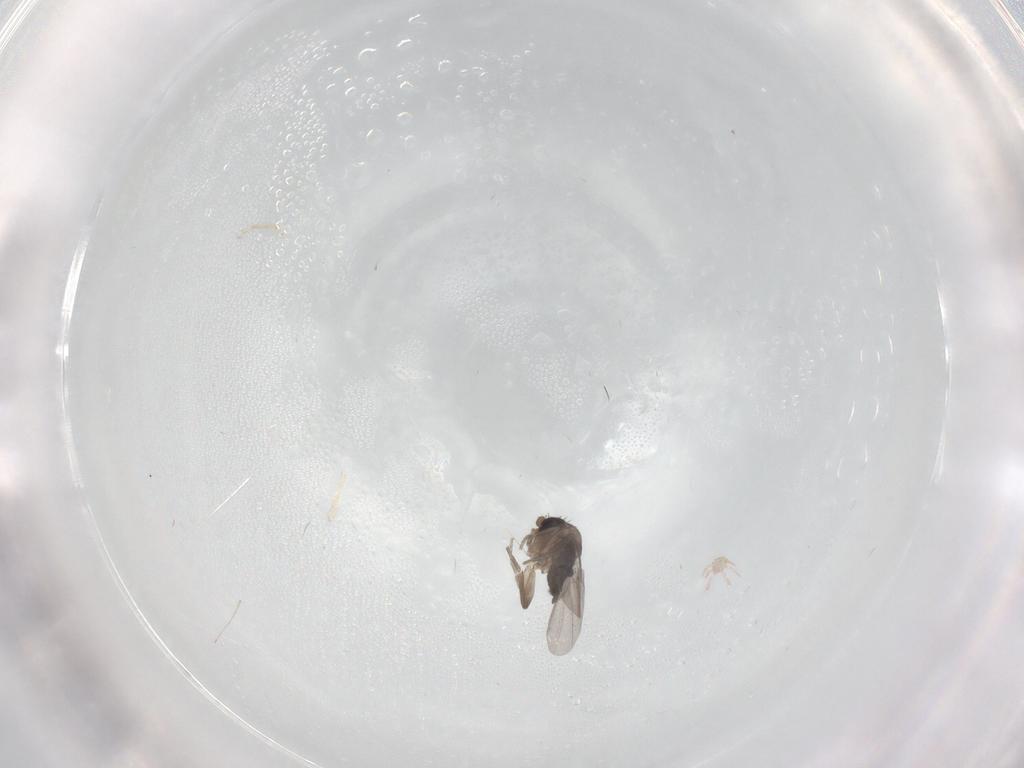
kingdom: Animalia
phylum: Arthropoda
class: Insecta
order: Diptera
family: Phoridae
